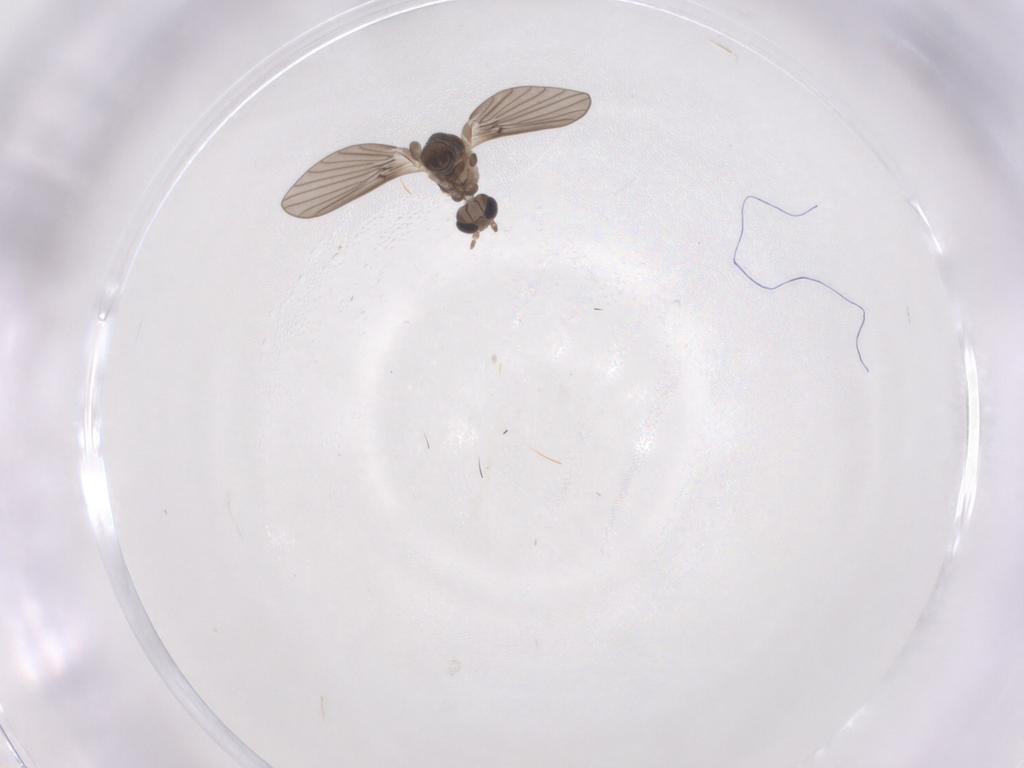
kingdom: Animalia
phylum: Arthropoda
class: Insecta
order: Diptera
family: Psychodidae
